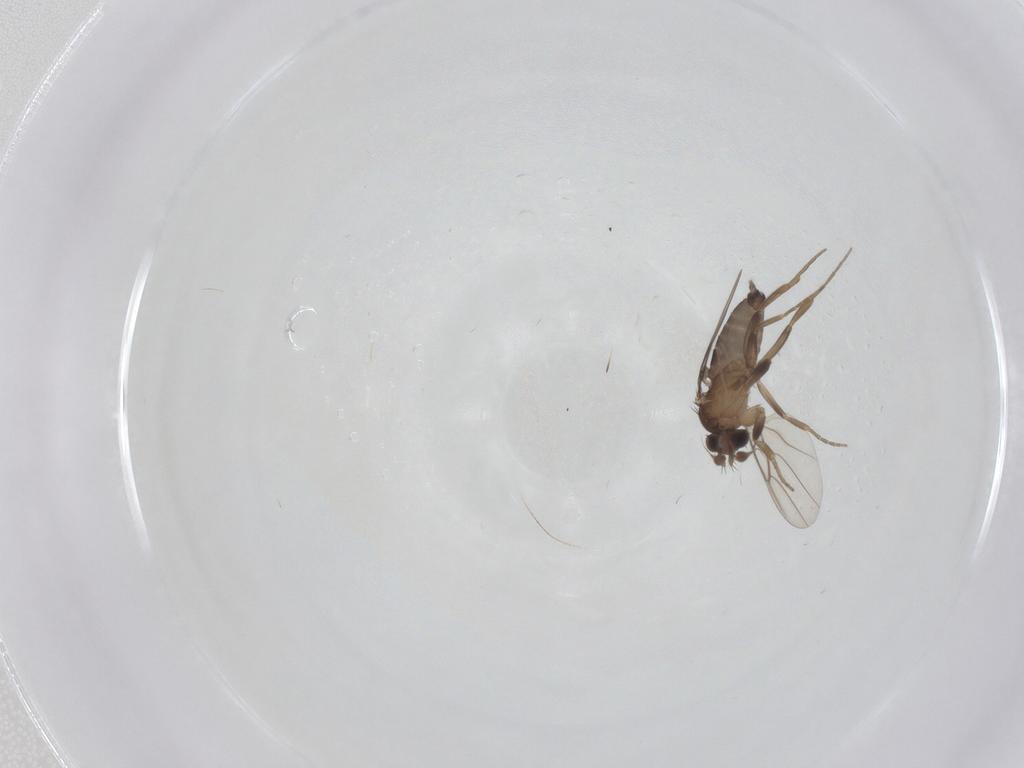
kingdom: Animalia
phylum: Arthropoda
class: Insecta
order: Diptera
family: Phoridae
